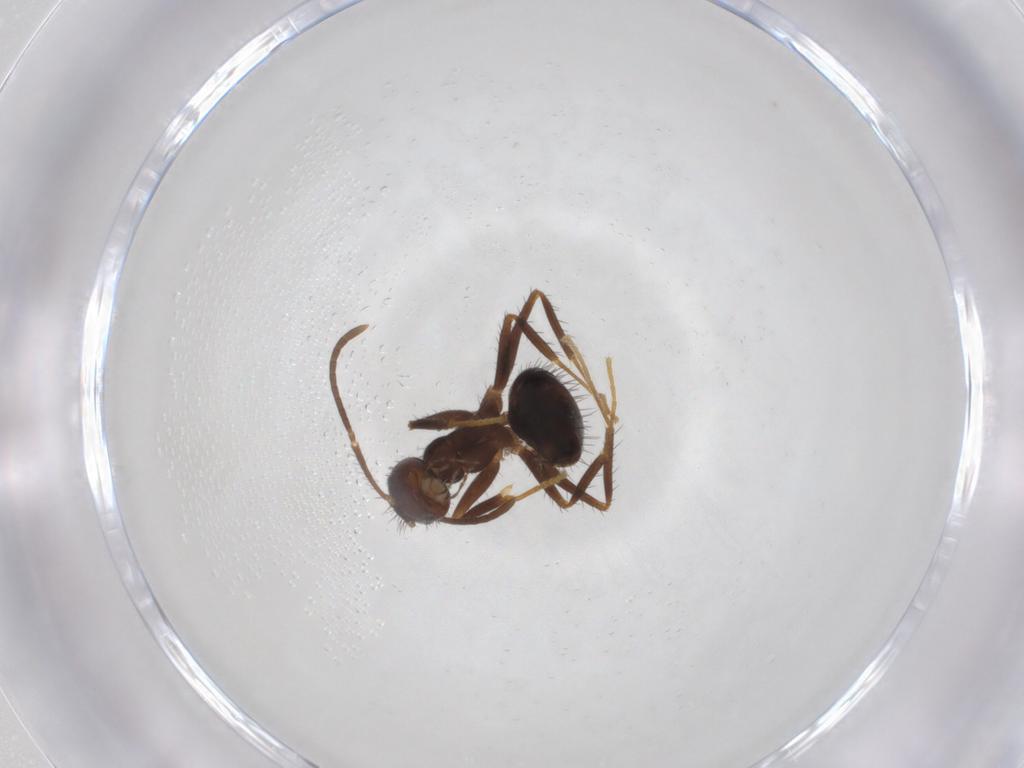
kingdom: Animalia
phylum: Arthropoda
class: Insecta
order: Hymenoptera
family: Formicidae
